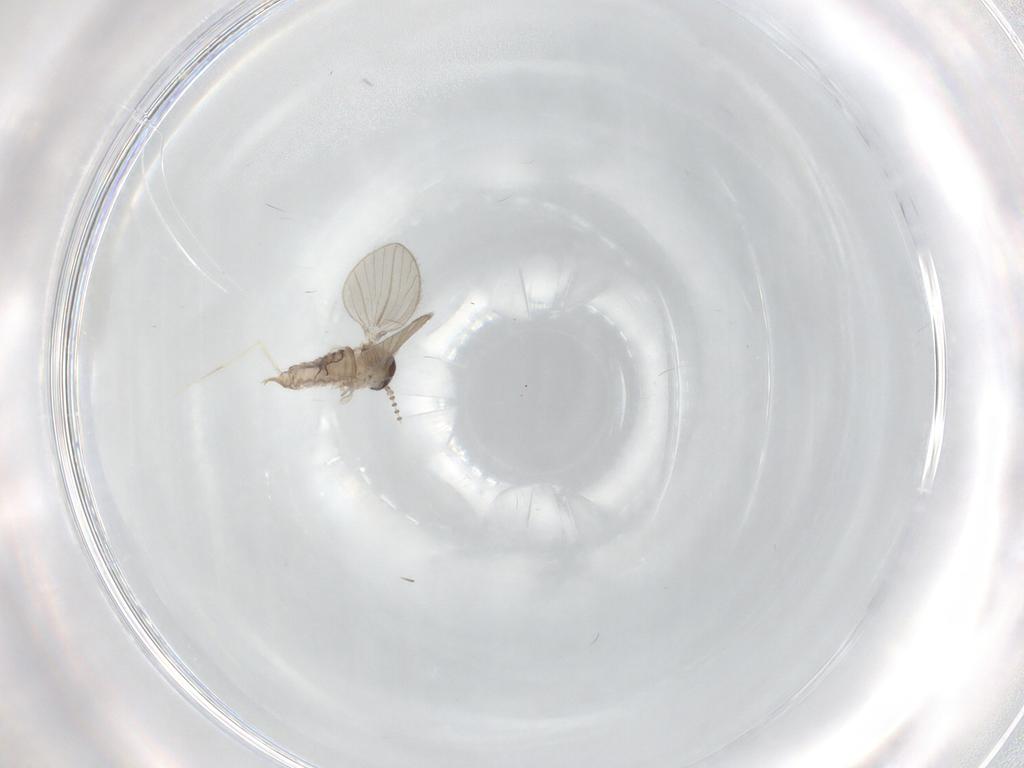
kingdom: Animalia
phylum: Arthropoda
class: Insecta
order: Diptera
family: Psychodidae
